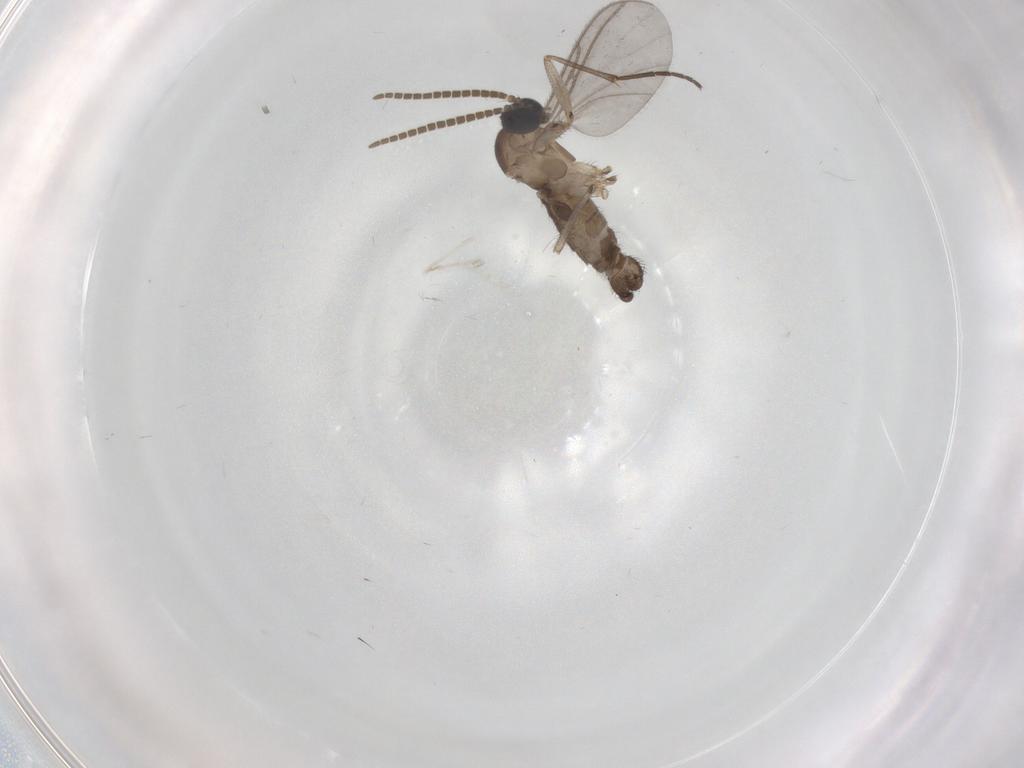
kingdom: Animalia
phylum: Arthropoda
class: Insecta
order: Diptera
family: Cecidomyiidae
